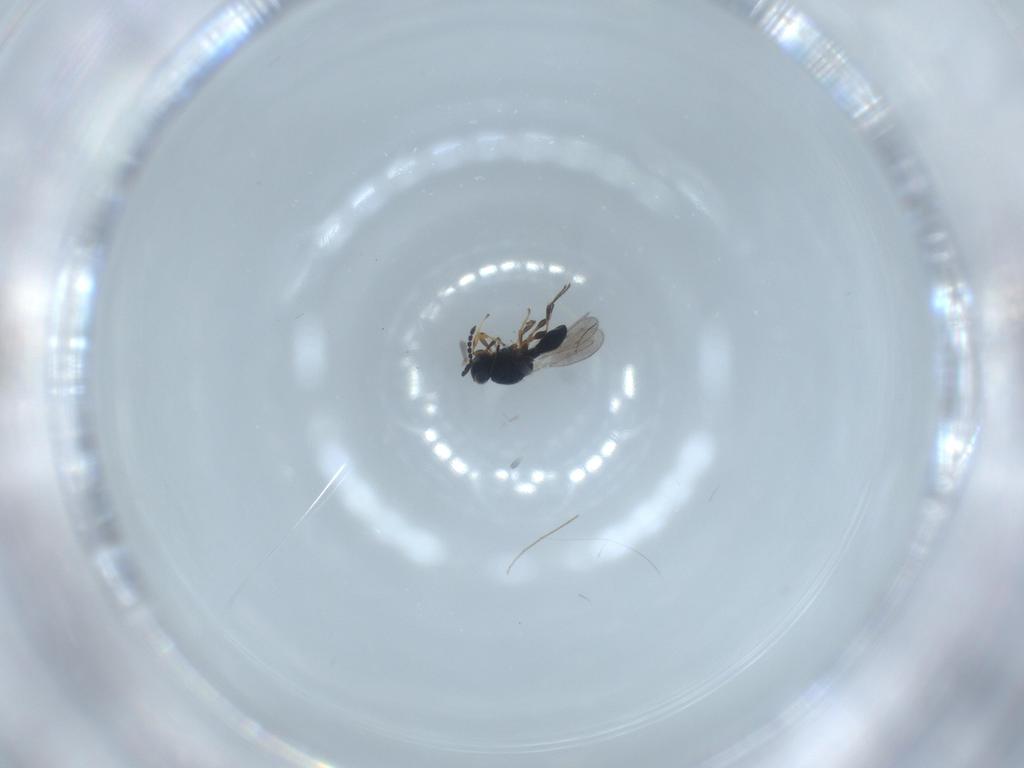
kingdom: Animalia
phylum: Arthropoda
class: Insecta
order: Hymenoptera
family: Platygastridae
